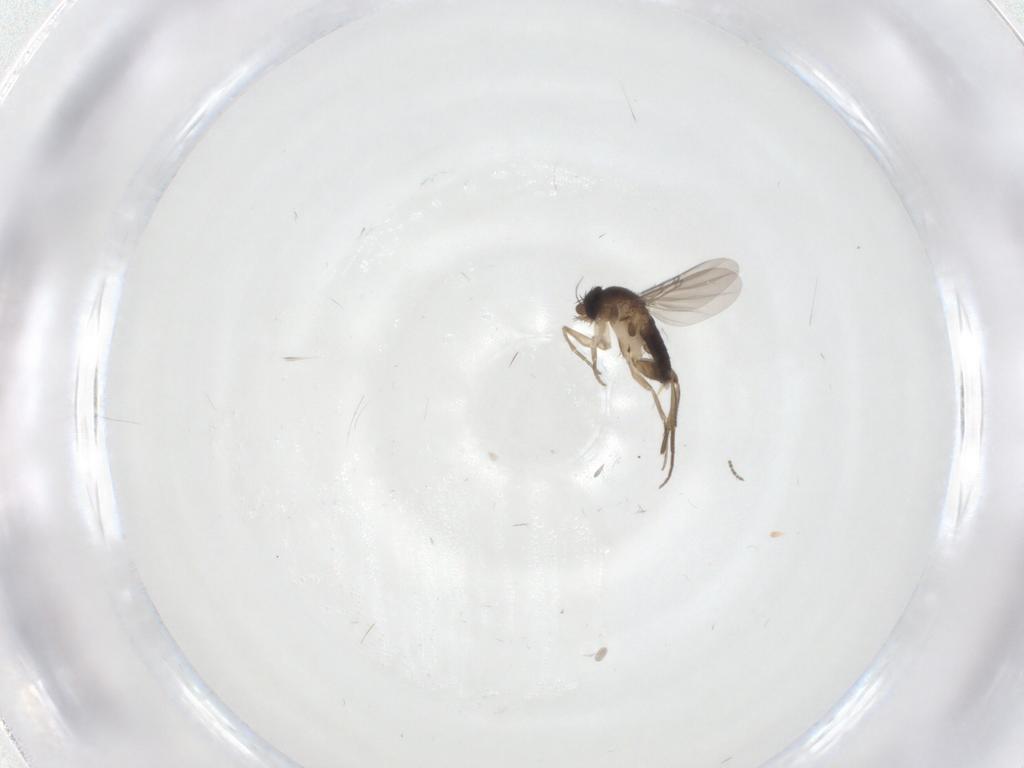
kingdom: Animalia
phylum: Arthropoda
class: Insecta
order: Diptera
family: Phoridae
